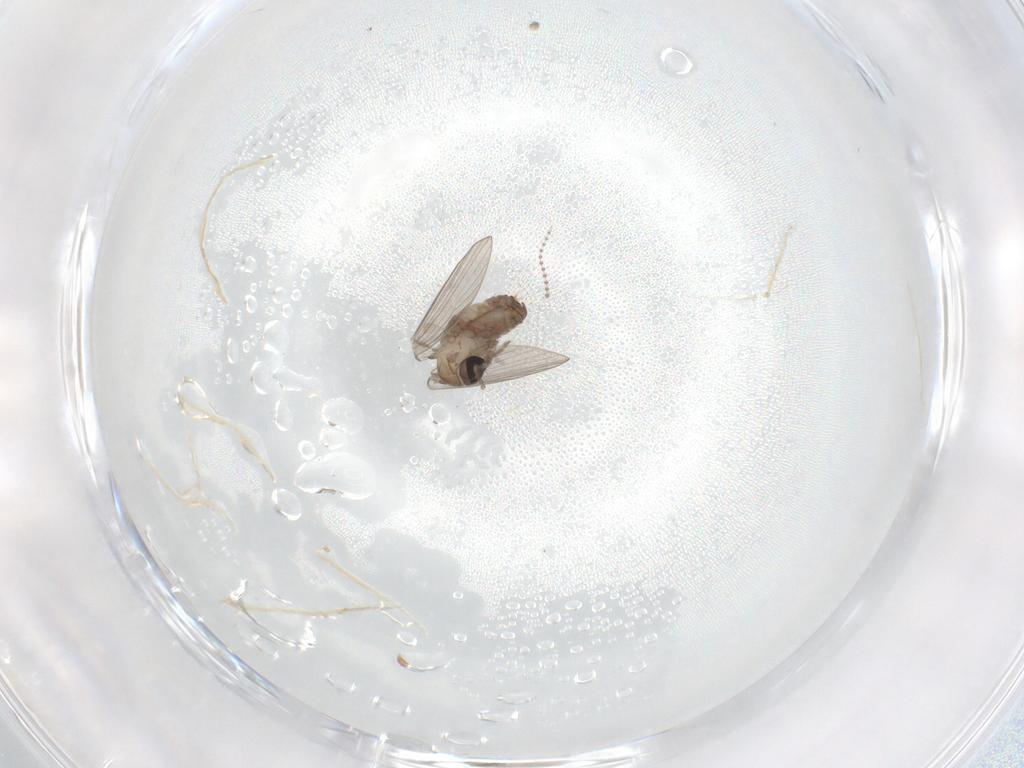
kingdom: Animalia
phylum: Arthropoda
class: Insecta
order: Diptera
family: Psychodidae
